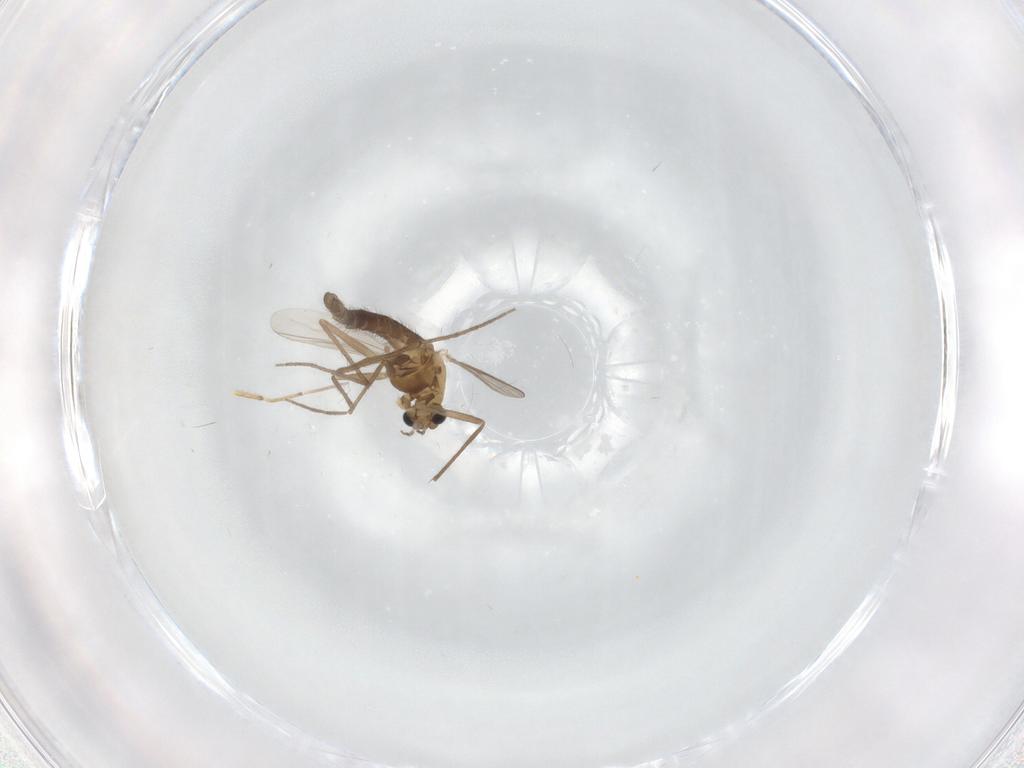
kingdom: Animalia
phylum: Arthropoda
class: Insecta
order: Diptera
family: Chironomidae
